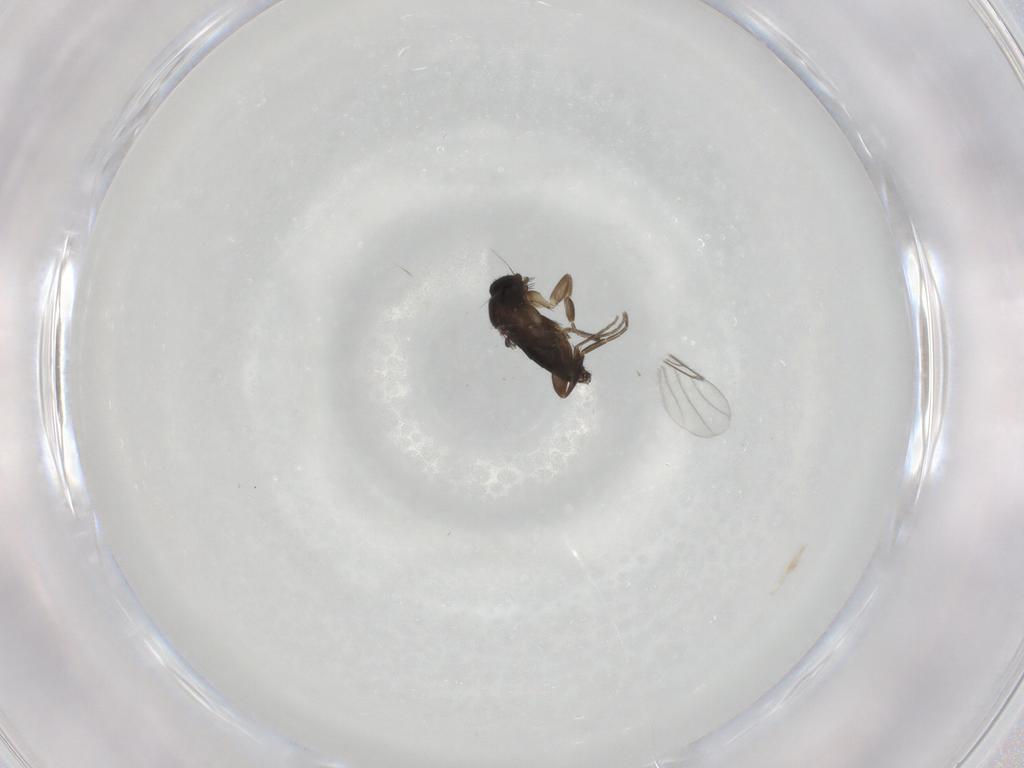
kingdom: Animalia
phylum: Arthropoda
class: Insecta
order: Diptera
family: Phoridae
